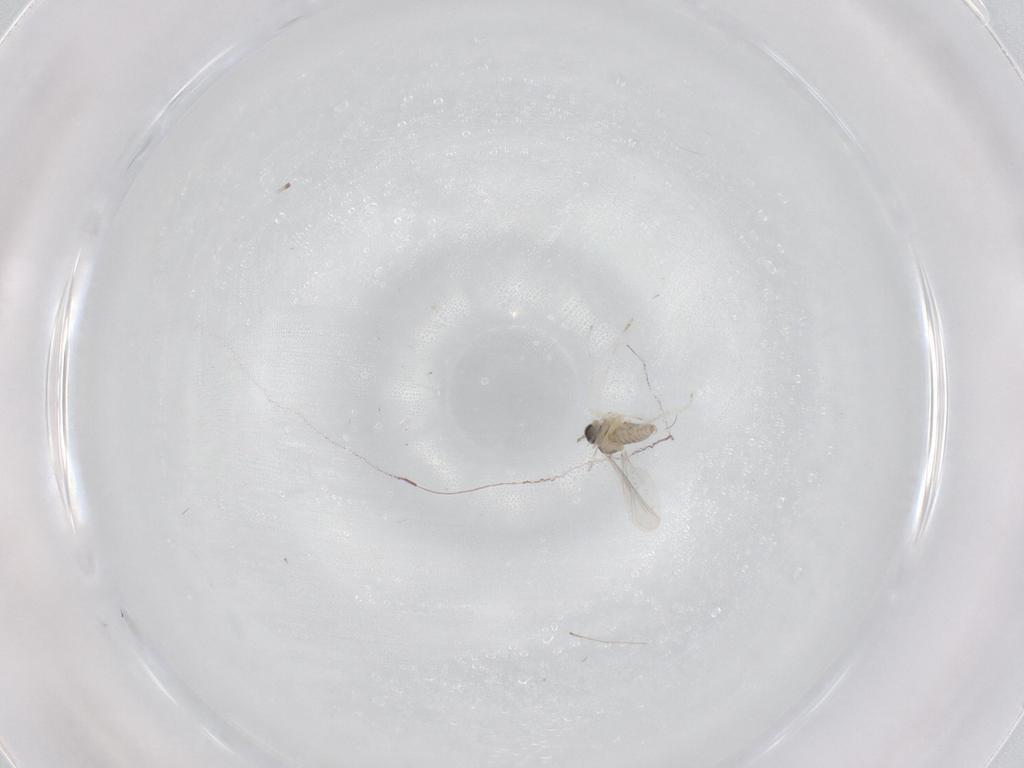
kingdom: Animalia
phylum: Arthropoda
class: Insecta
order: Diptera
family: Cecidomyiidae
